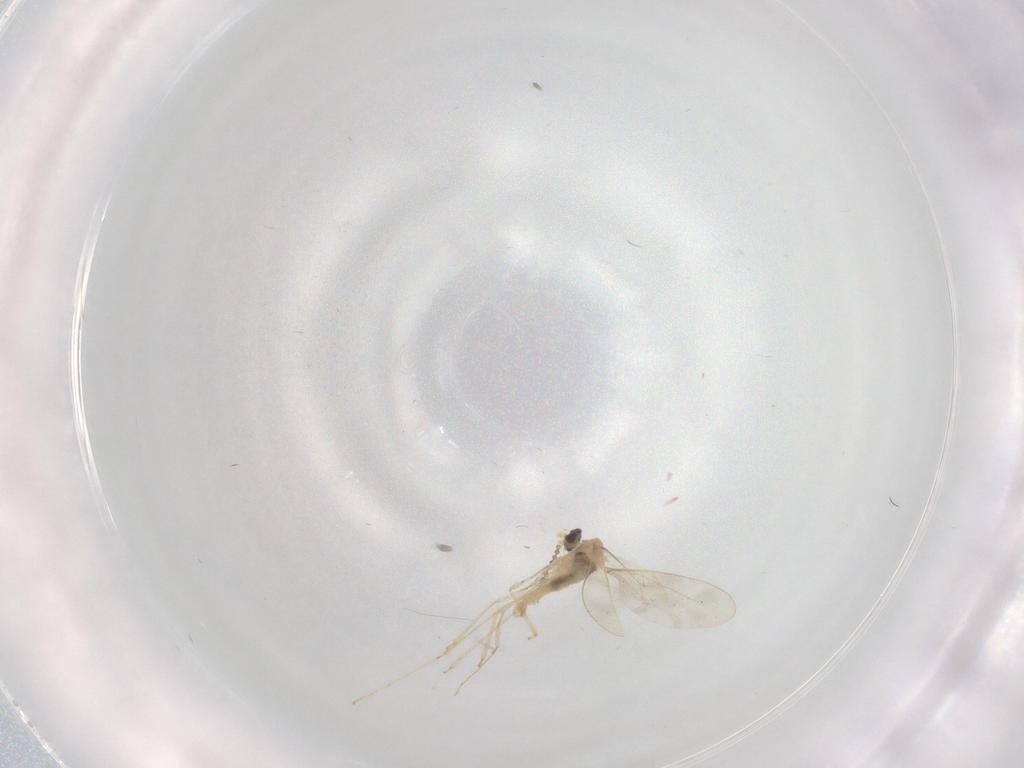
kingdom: Animalia
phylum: Arthropoda
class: Insecta
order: Diptera
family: Cecidomyiidae
